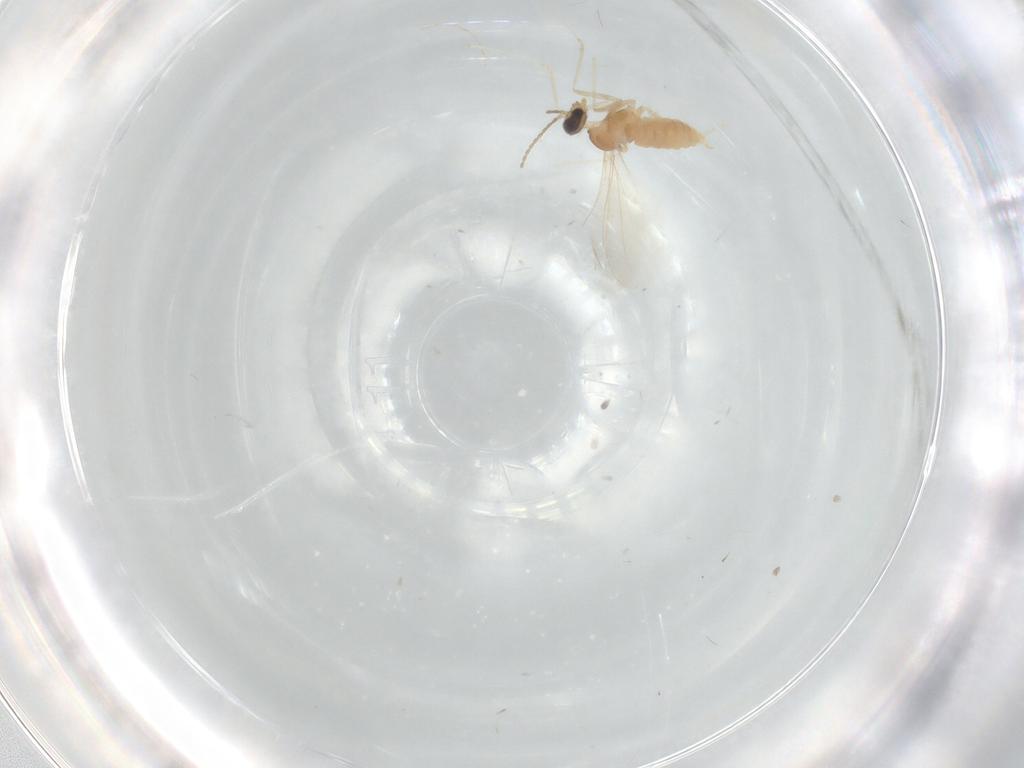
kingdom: Animalia
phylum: Arthropoda
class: Insecta
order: Diptera
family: Cecidomyiidae
